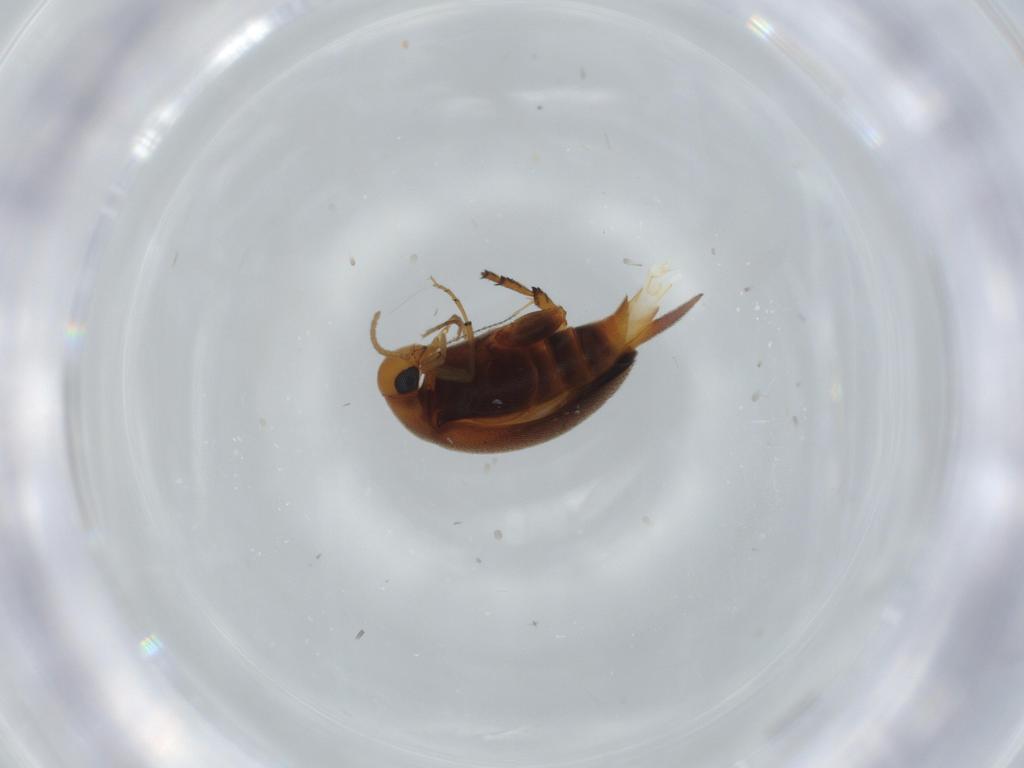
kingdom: Animalia
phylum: Arthropoda
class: Insecta
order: Coleoptera
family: Mordellidae
